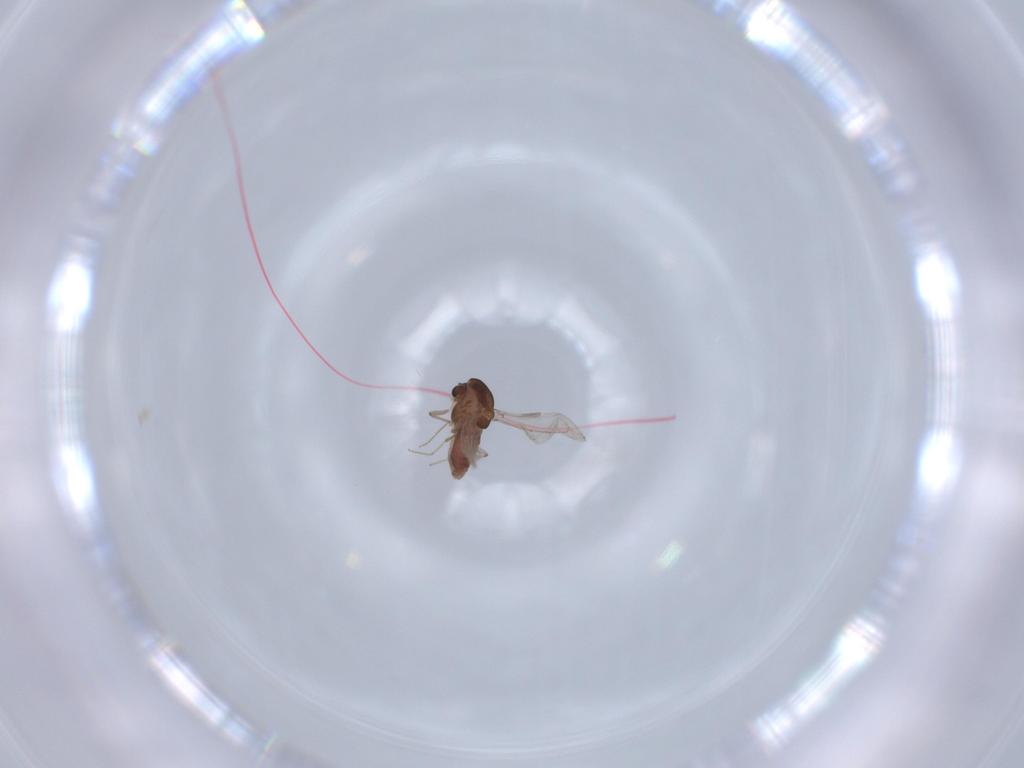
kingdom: Animalia
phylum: Arthropoda
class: Insecta
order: Diptera
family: Chironomidae
